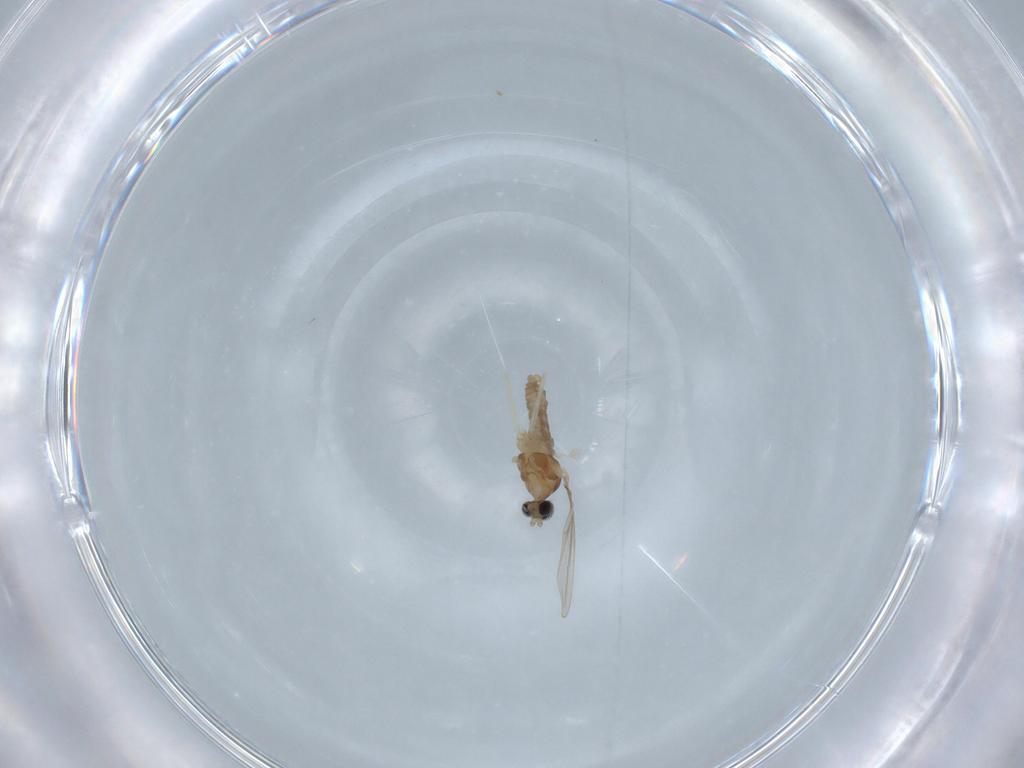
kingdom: Animalia
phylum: Arthropoda
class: Insecta
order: Diptera
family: Cecidomyiidae
